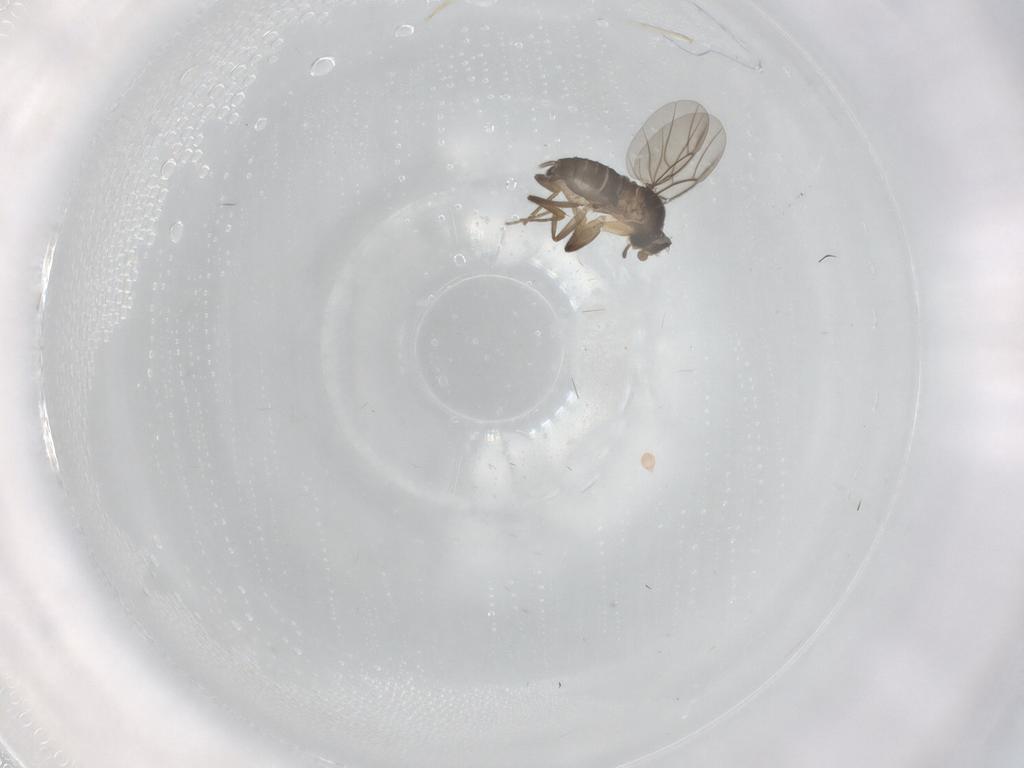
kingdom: Animalia
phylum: Arthropoda
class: Insecta
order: Diptera
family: Phoridae
